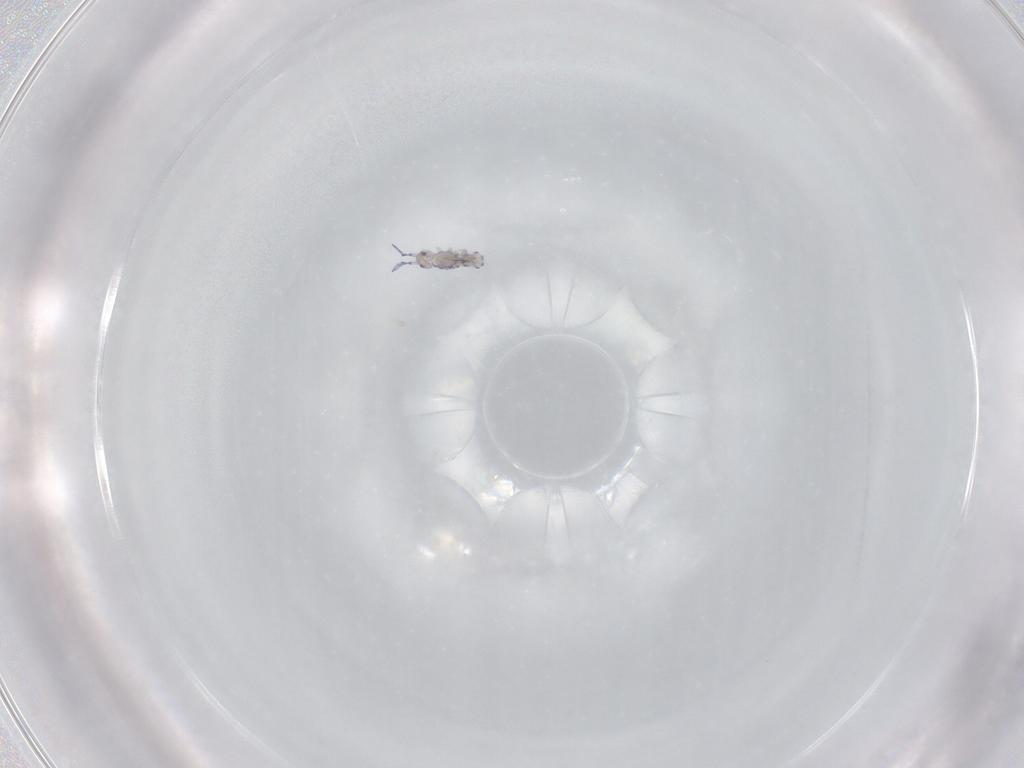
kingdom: Animalia
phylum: Arthropoda
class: Collembola
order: Entomobryomorpha
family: Entomobryidae
